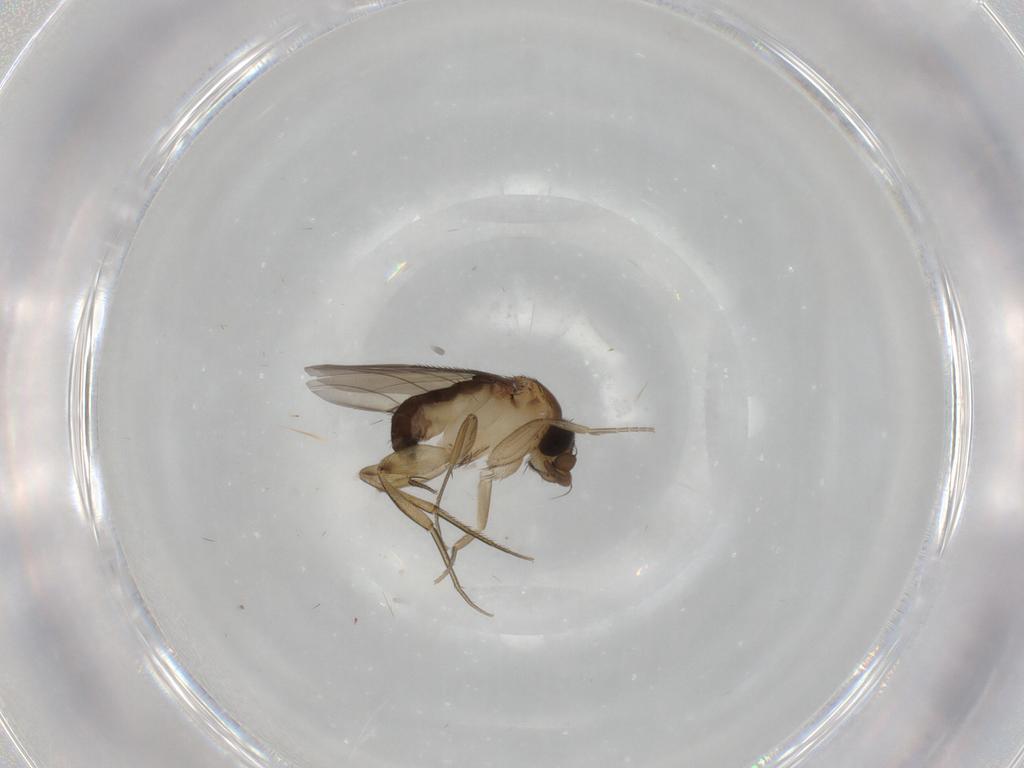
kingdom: Animalia
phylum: Arthropoda
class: Insecta
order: Diptera
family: Phoridae
